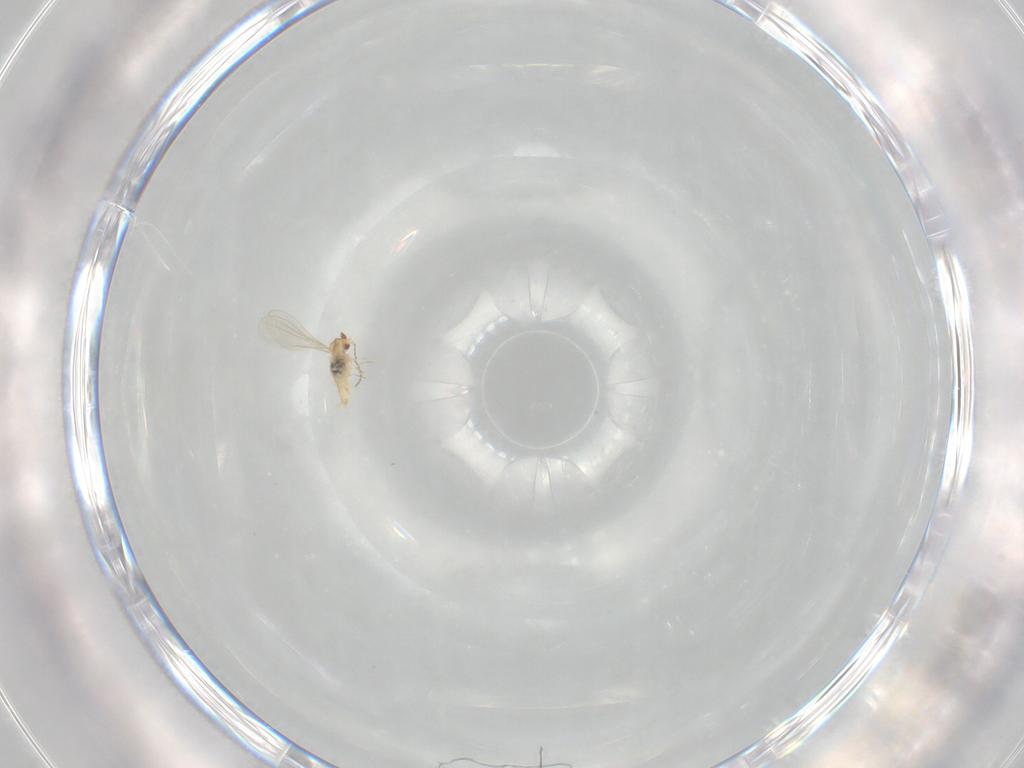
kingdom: Animalia
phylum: Arthropoda
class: Insecta
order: Diptera
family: Cecidomyiidae
